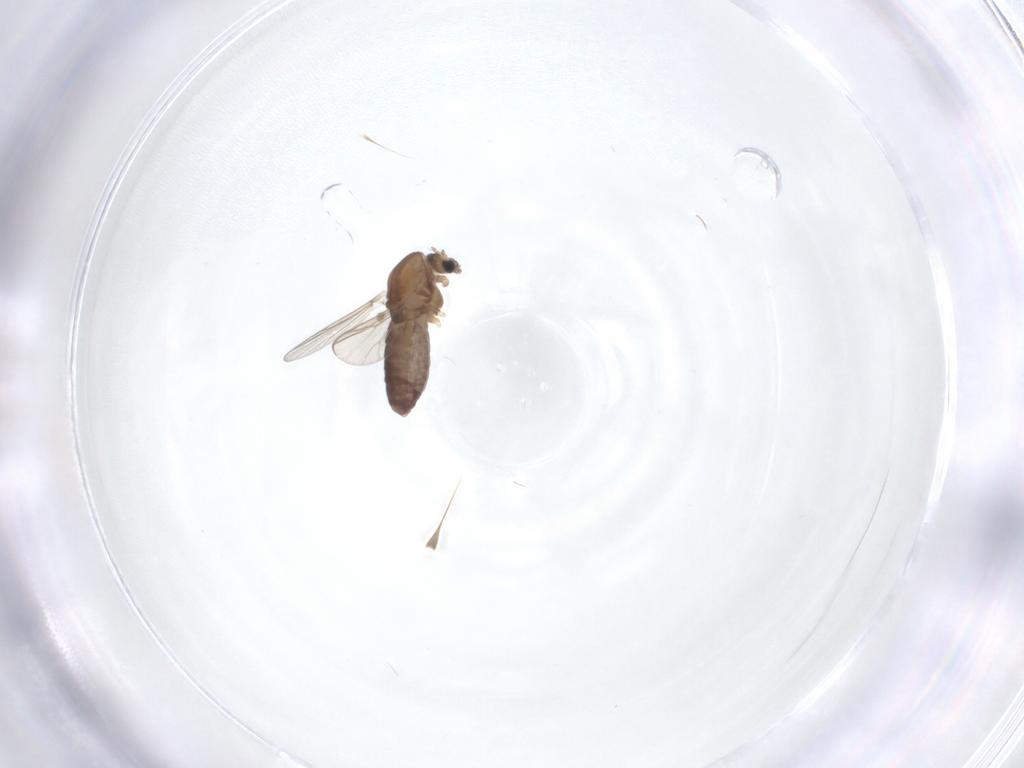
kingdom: Animalia
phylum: Arthropoda
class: Insecta
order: Diptera
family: Chironomidae
